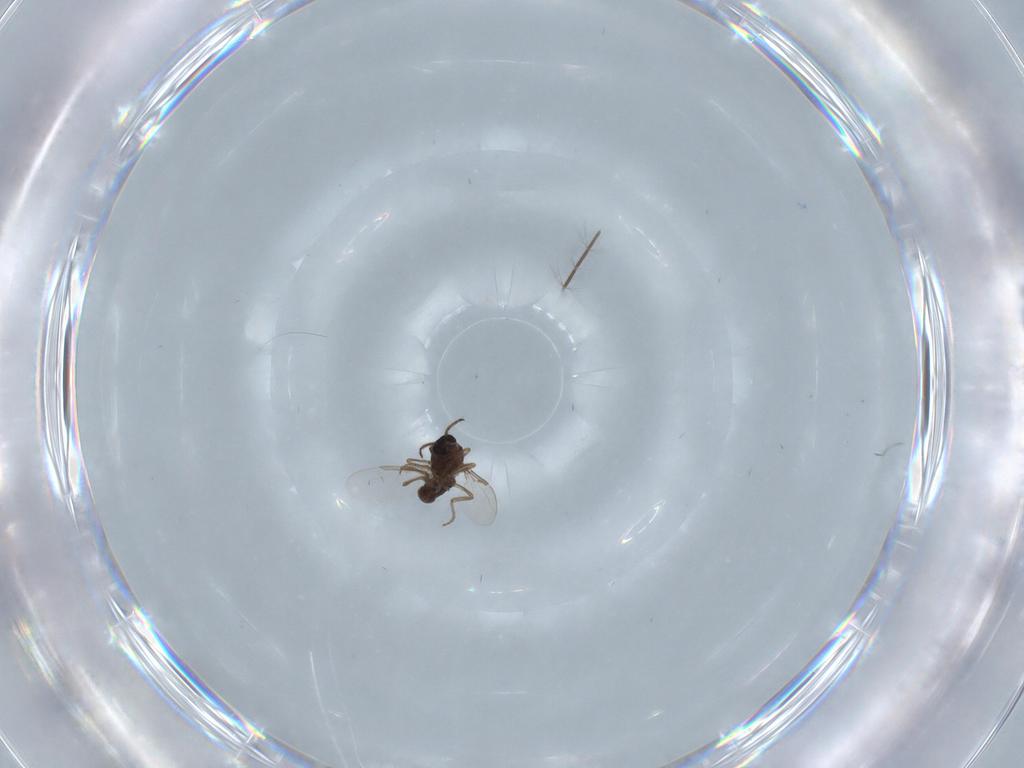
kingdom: Animalia
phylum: Arthropoda
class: Insecta
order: Diptera
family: Ceratopogonidae
